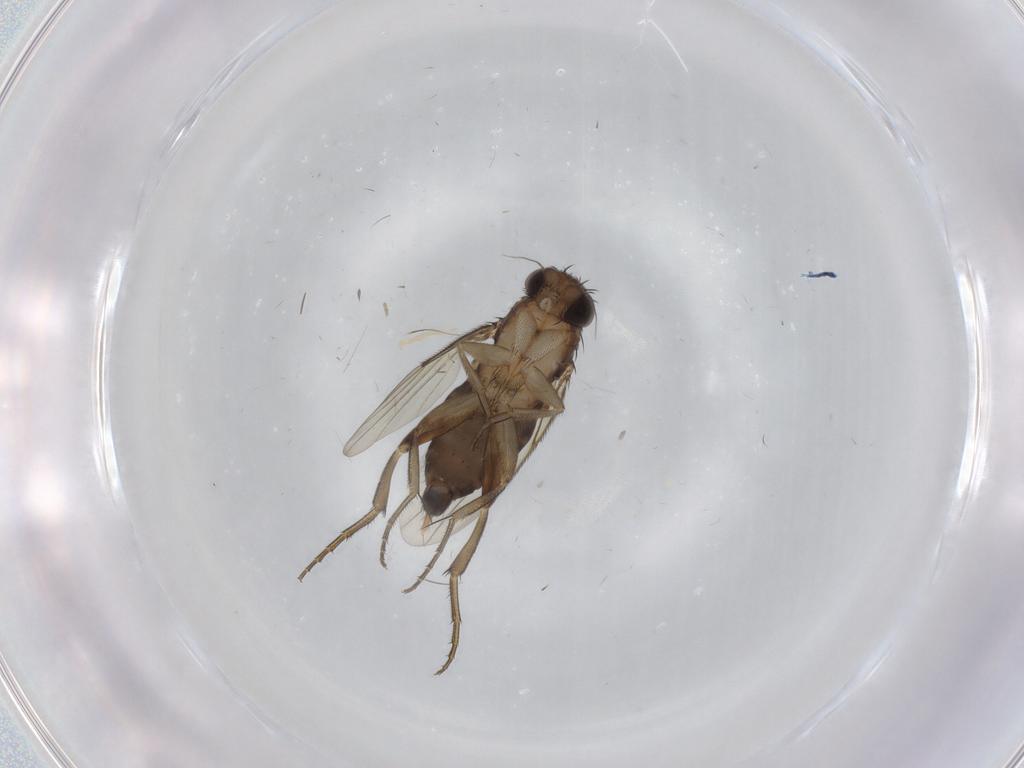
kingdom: Animalia
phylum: Arthropoda
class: Insecta
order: Diptera
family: Phoridae
